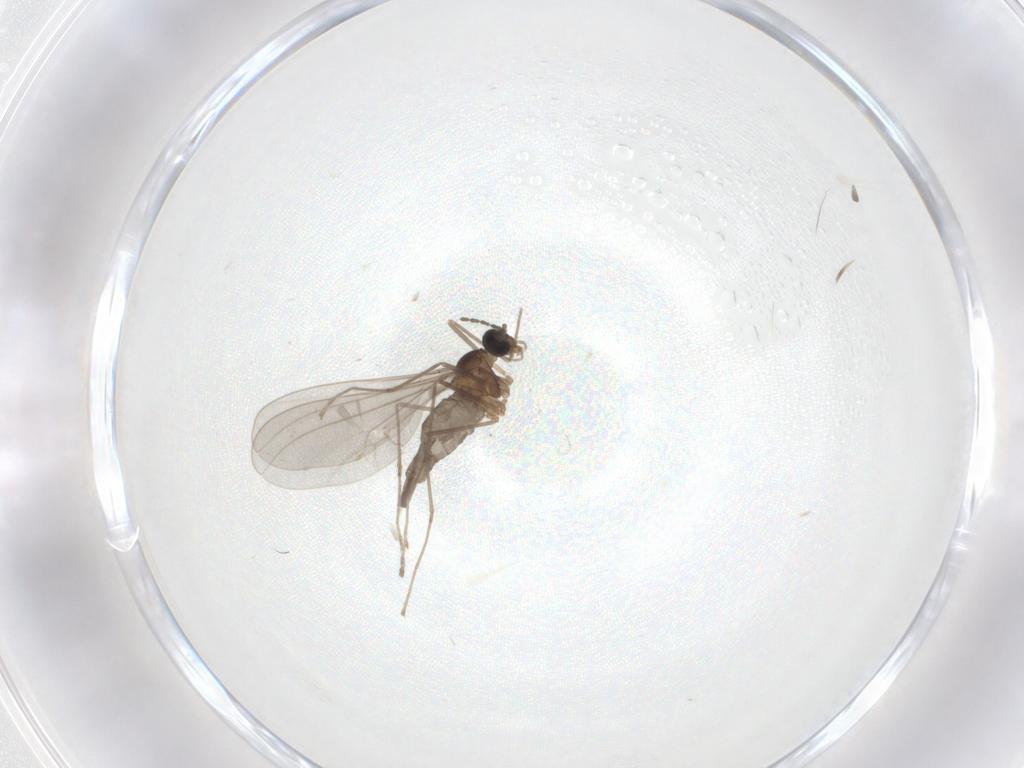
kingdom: Animalia
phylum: Arthropoda
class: Insecta
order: Diptera
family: Cecidomyiidae
